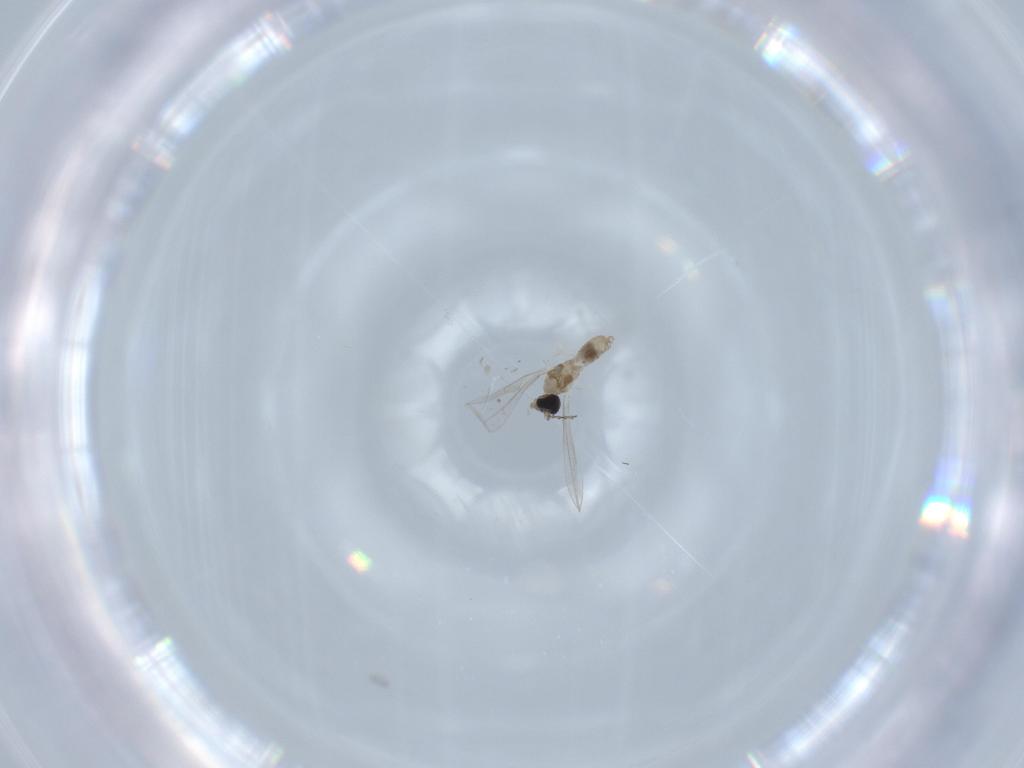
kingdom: Animalia
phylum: Arthropoda
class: Insecta
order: Diptera
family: Cecidomyiidae
